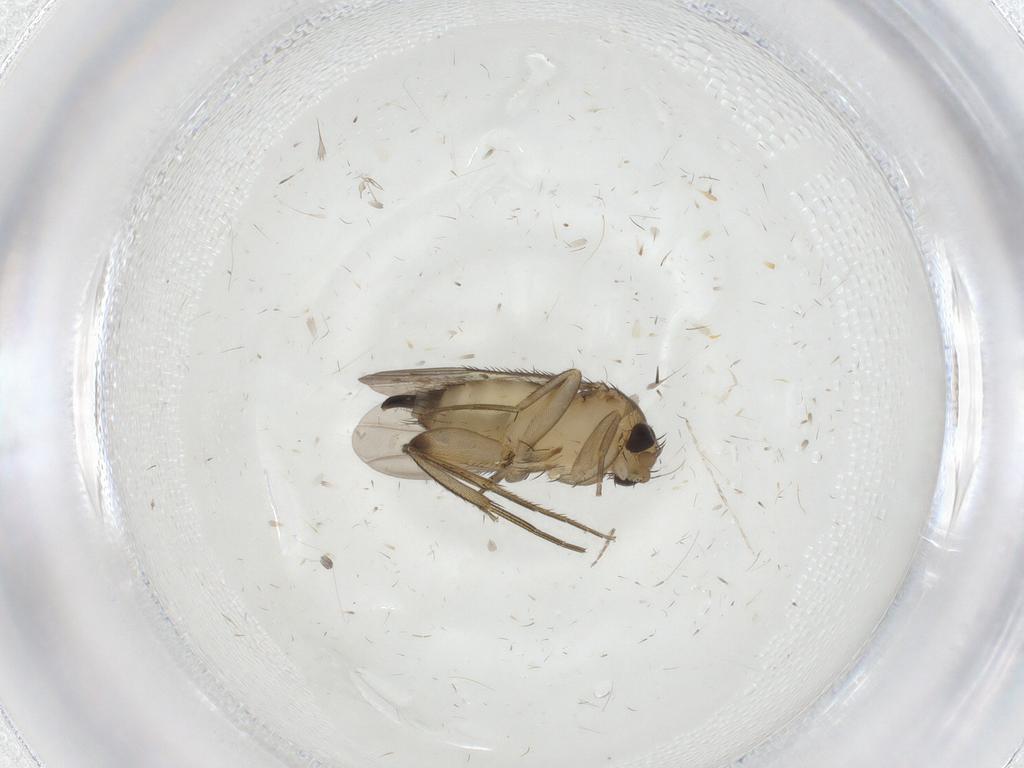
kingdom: Animalia
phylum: Arthropoda
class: Insecta
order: Diptera
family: Phoridae
